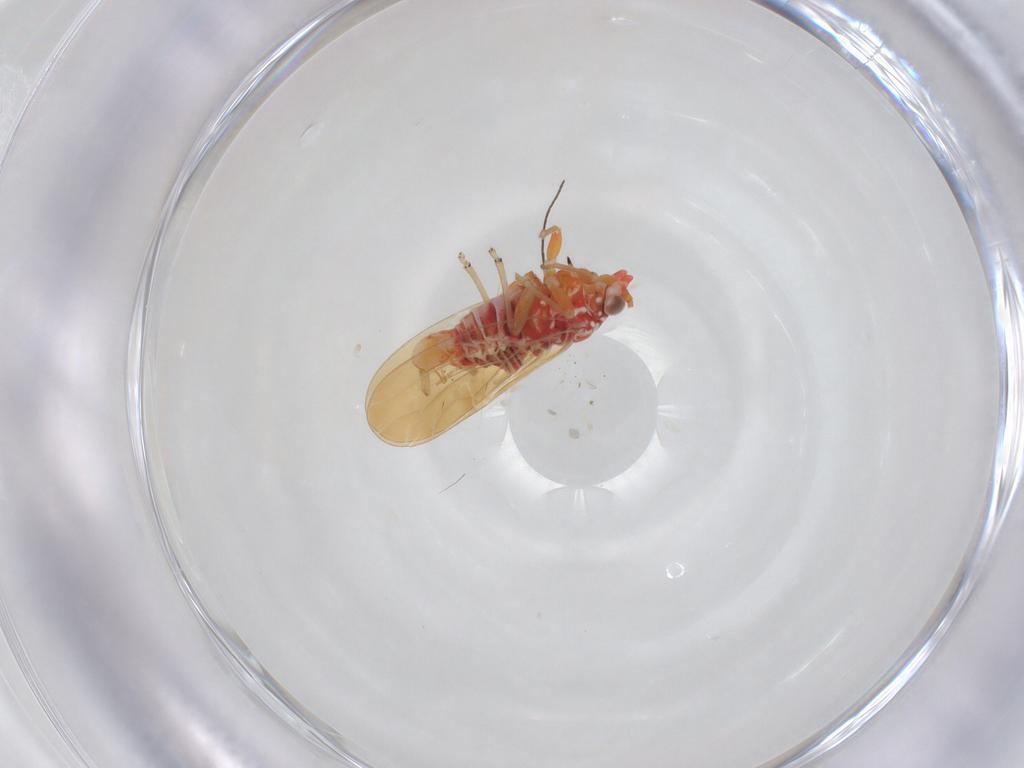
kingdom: Animalia
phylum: Arthropoda
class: Insecta
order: Hemiptera
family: Psyllidae
